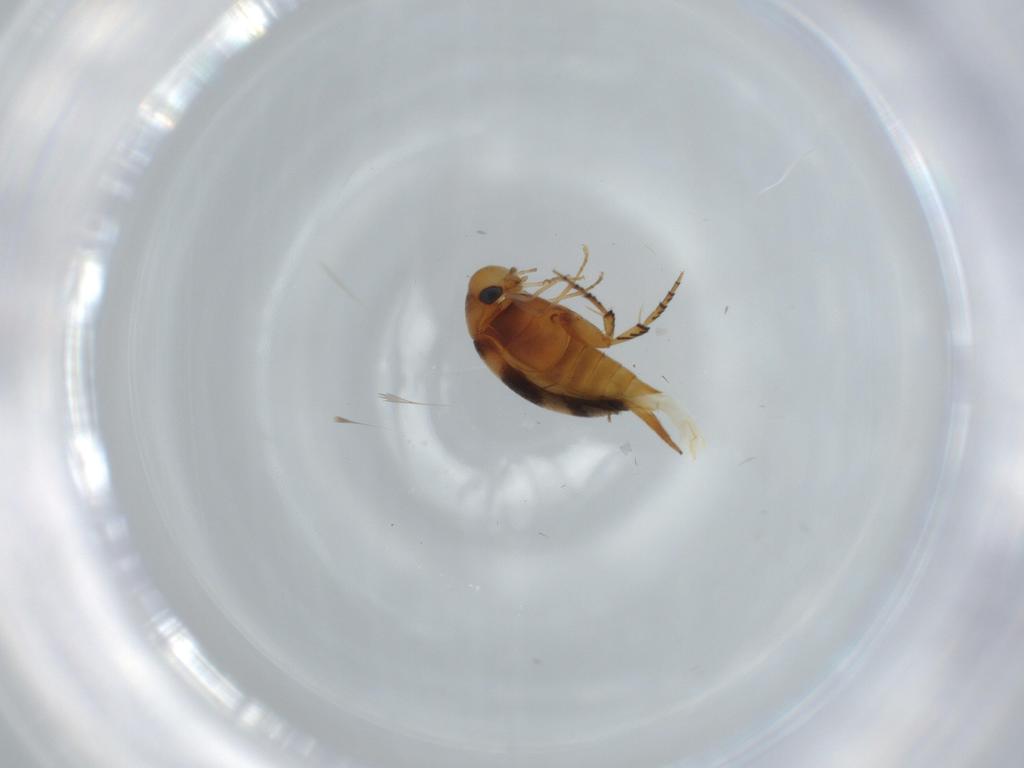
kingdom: Animalia
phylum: Arthropoda
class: Insecta
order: Coleoptera
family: Mordellidae
